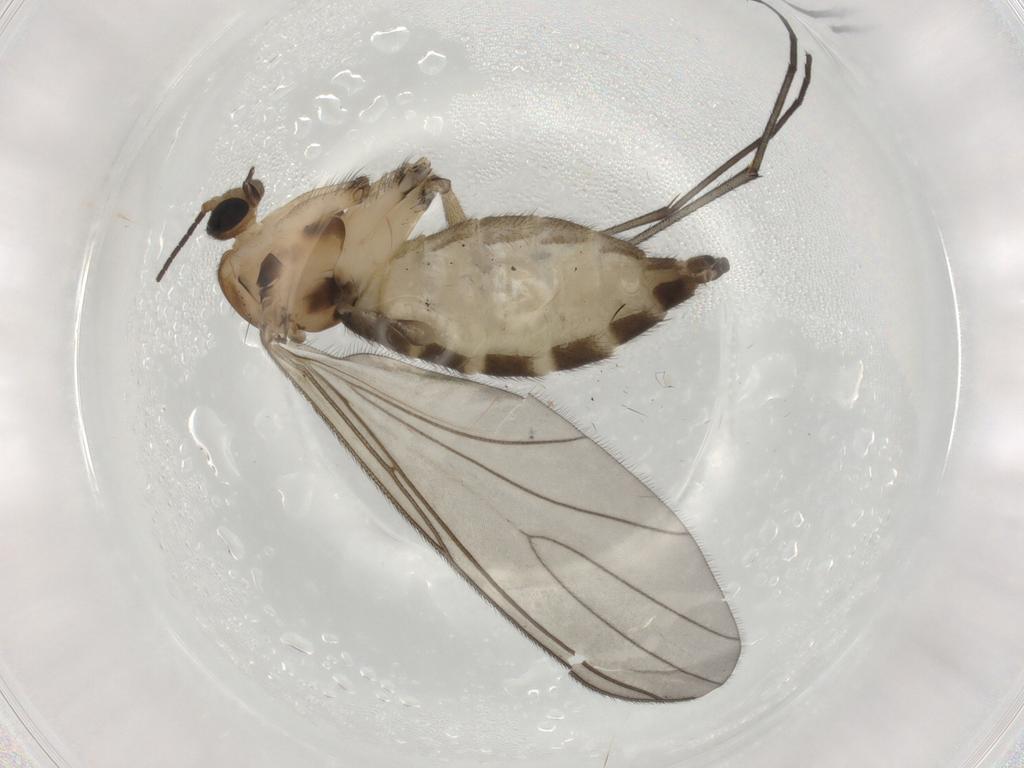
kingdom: Animalia
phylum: Arthropoda
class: Insecta
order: Diptera
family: Sciaridae
